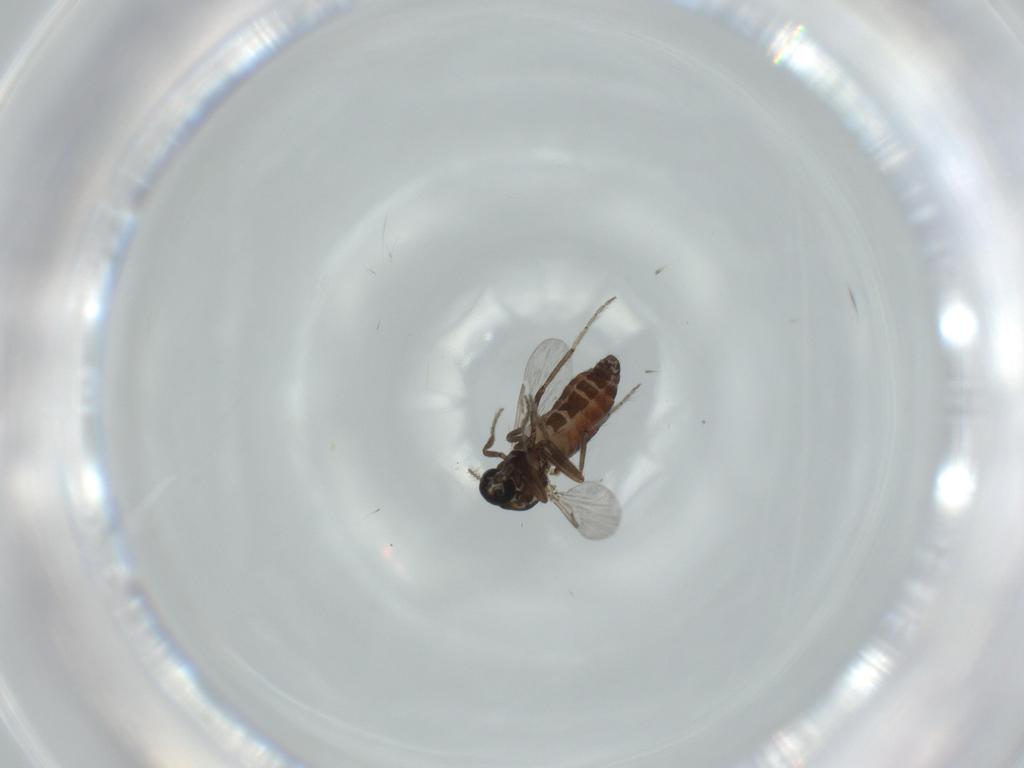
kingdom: Animalia
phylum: Arthropoda
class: Insecta
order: Diptera
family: Ceratopogonidae
